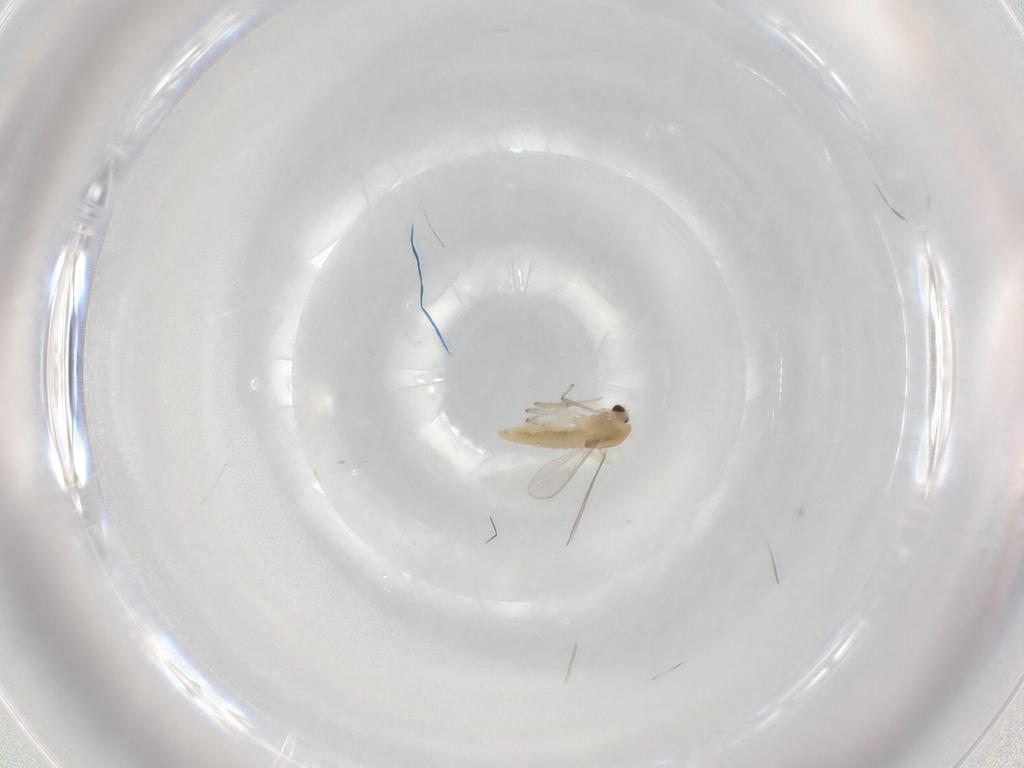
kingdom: Animalia
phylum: Arthropoda
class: Insecta
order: Diptera
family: Chironomidae
